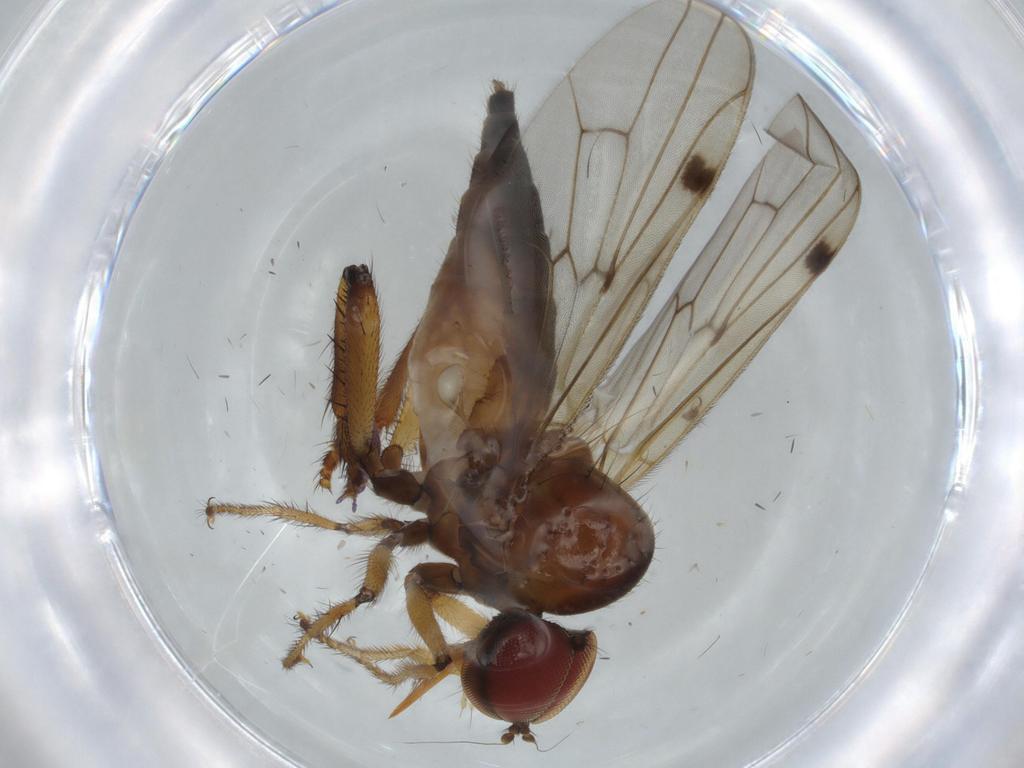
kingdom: Animalia
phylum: Arthropoda
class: Insecta
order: Diptera
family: Hybotidae
